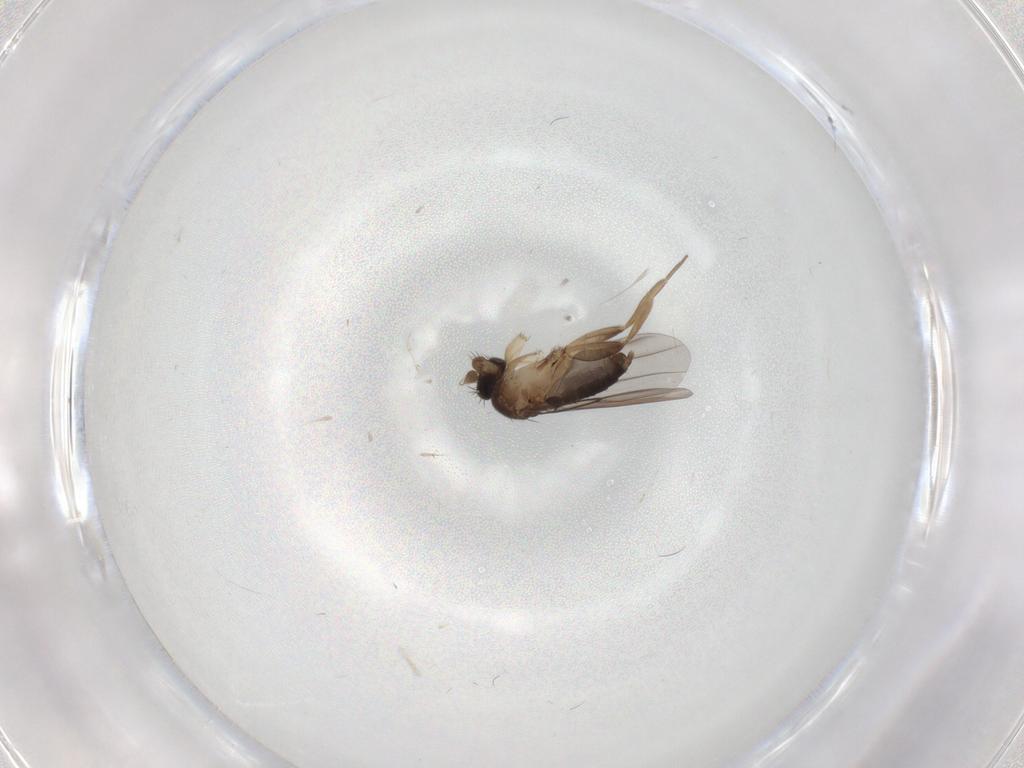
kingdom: Animalia
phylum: Arthropoda
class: Insecta
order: Diptera
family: Phoridae
